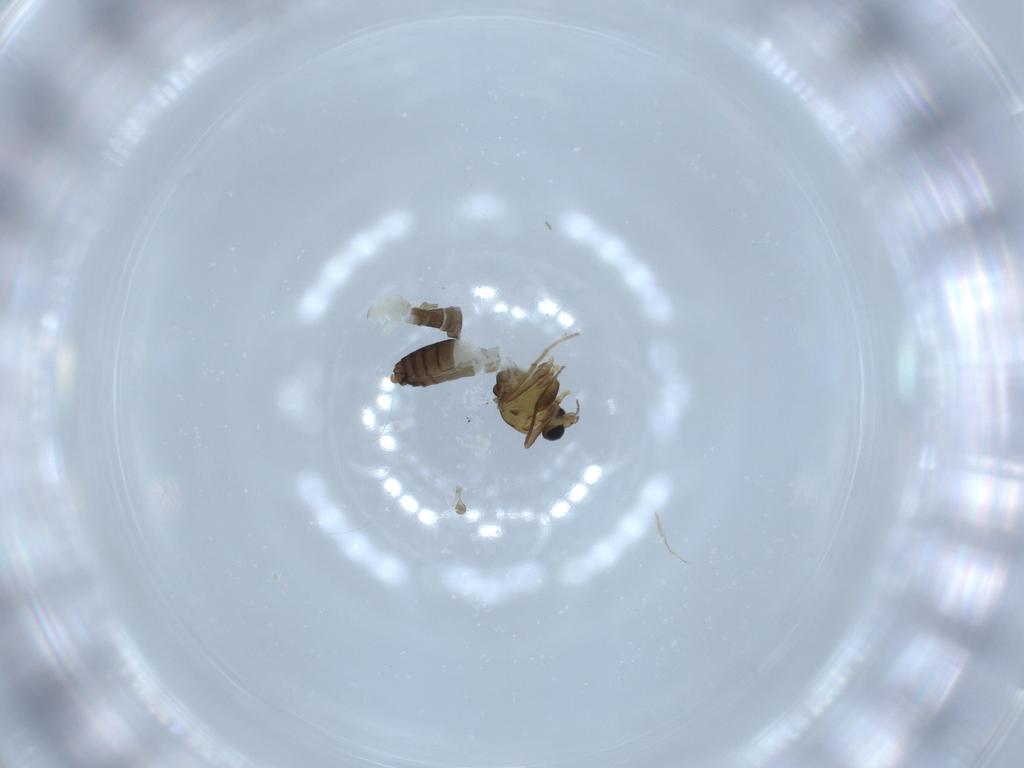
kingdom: Animalia
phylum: Arthropoda
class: Insecta
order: Diptera
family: Chironomidae
